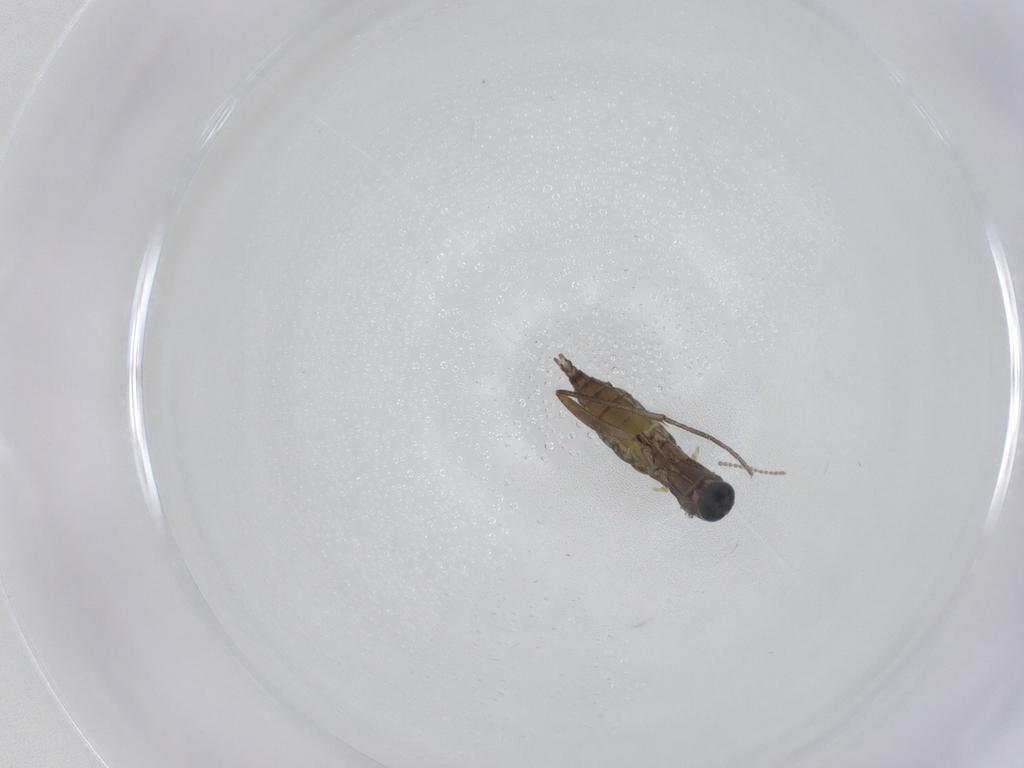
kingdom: Animalia
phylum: Arthropoda
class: Insecta
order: Diptera
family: Sciaridae
